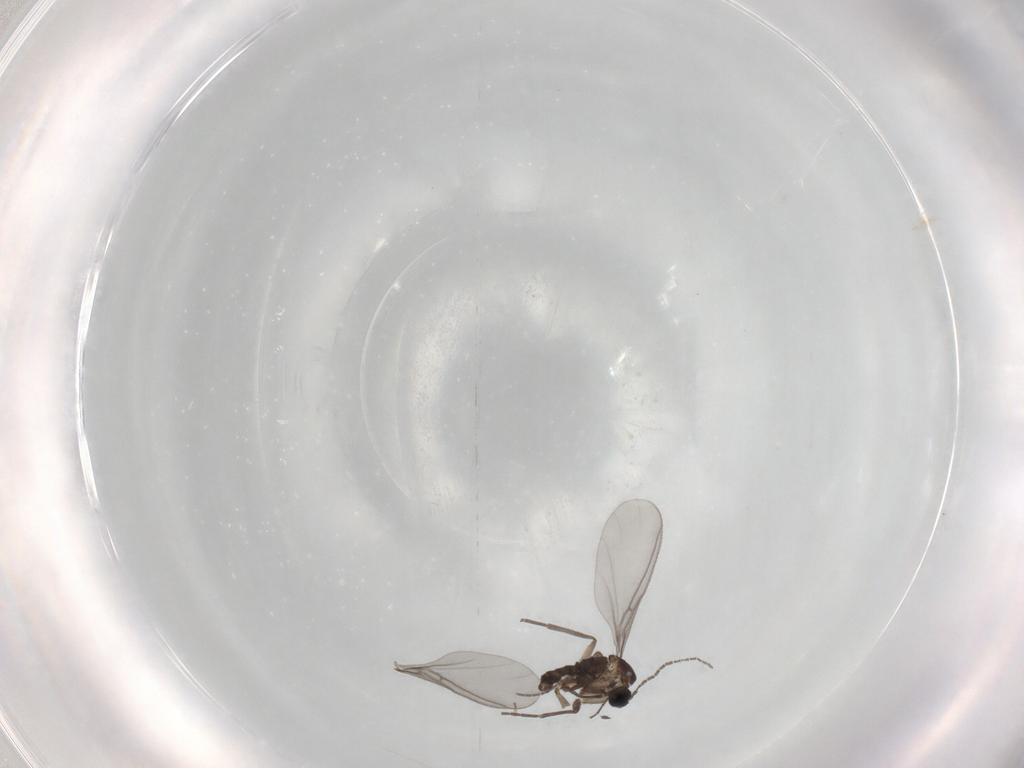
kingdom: Animalia
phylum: Arthropoda
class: Insecta
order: Diptera
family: Sciaridae
